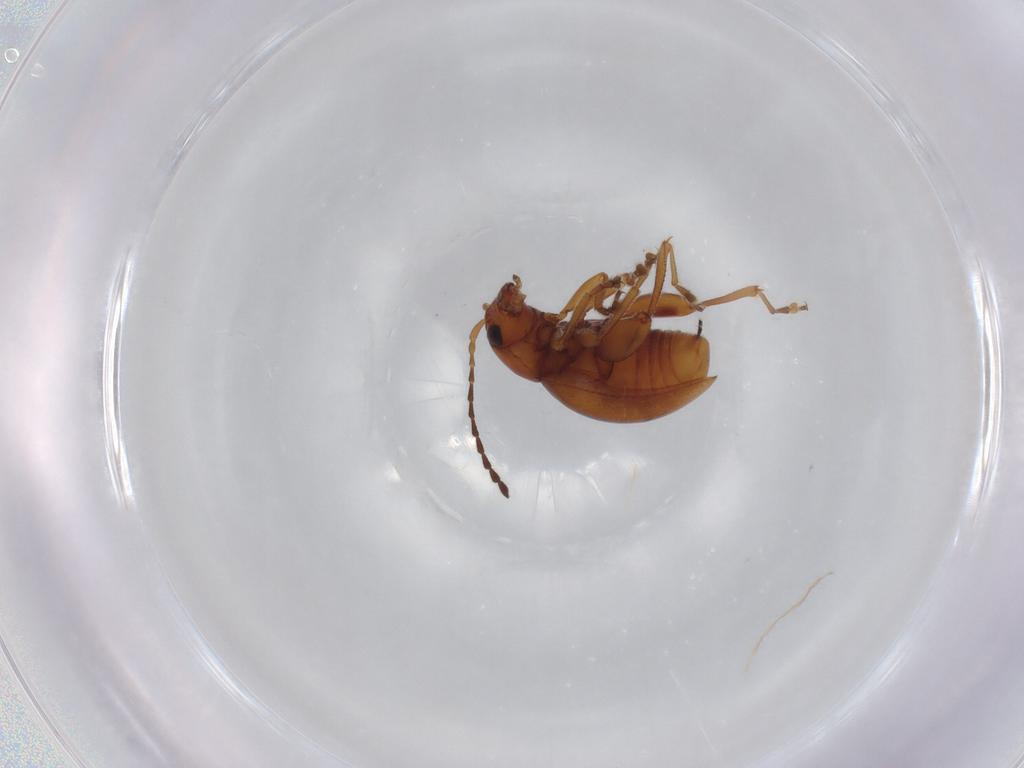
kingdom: Animalia
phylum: Arthropoda
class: Insecta
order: Coleoptera
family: Chrysomelidae
